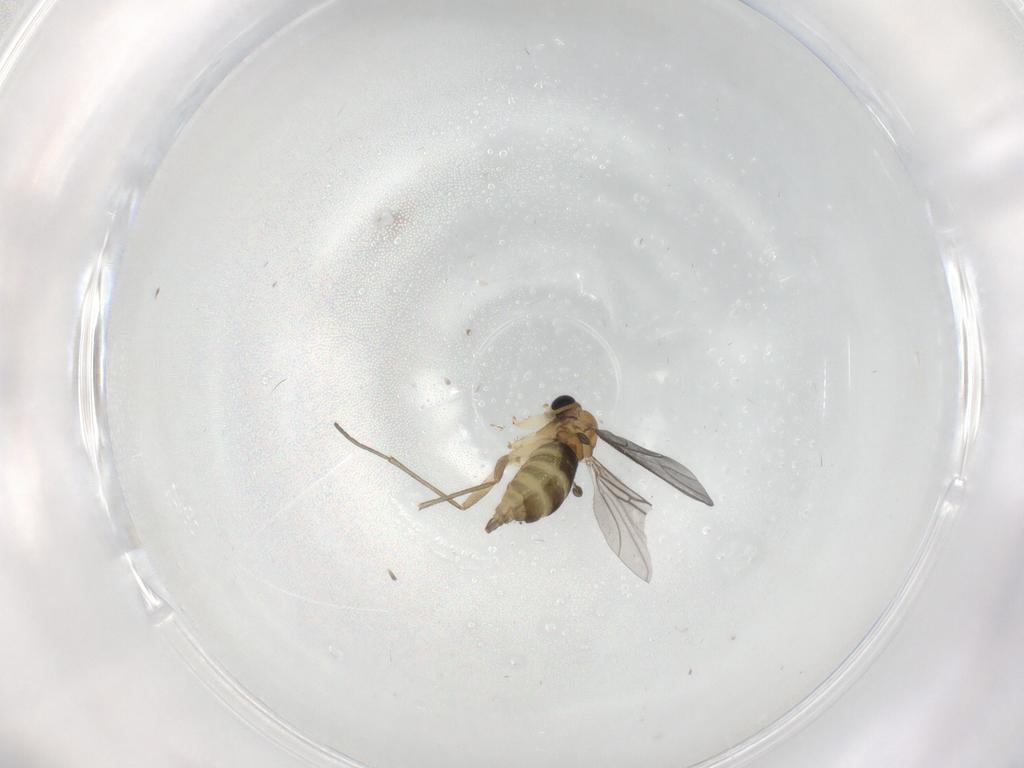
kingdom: Animalia
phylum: Arthropoda
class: Insecta
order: Diptera
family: Sciaridae
